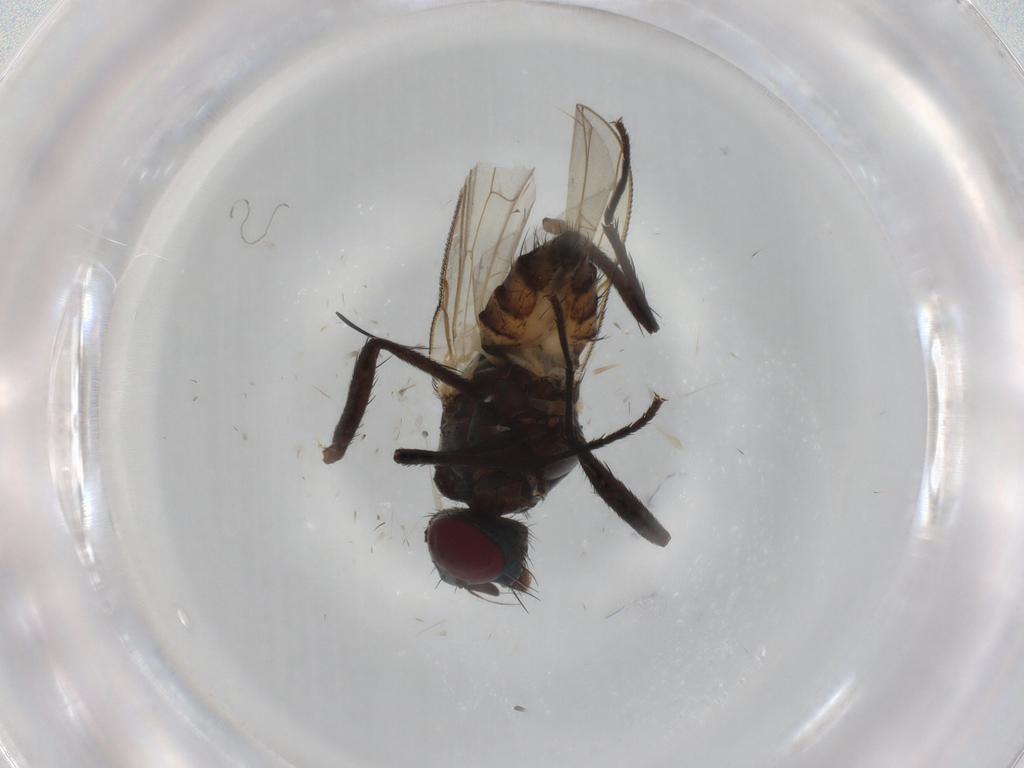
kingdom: Animalia
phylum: Arthropoda
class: Insecta
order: Diptera
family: Anthomyiidae
